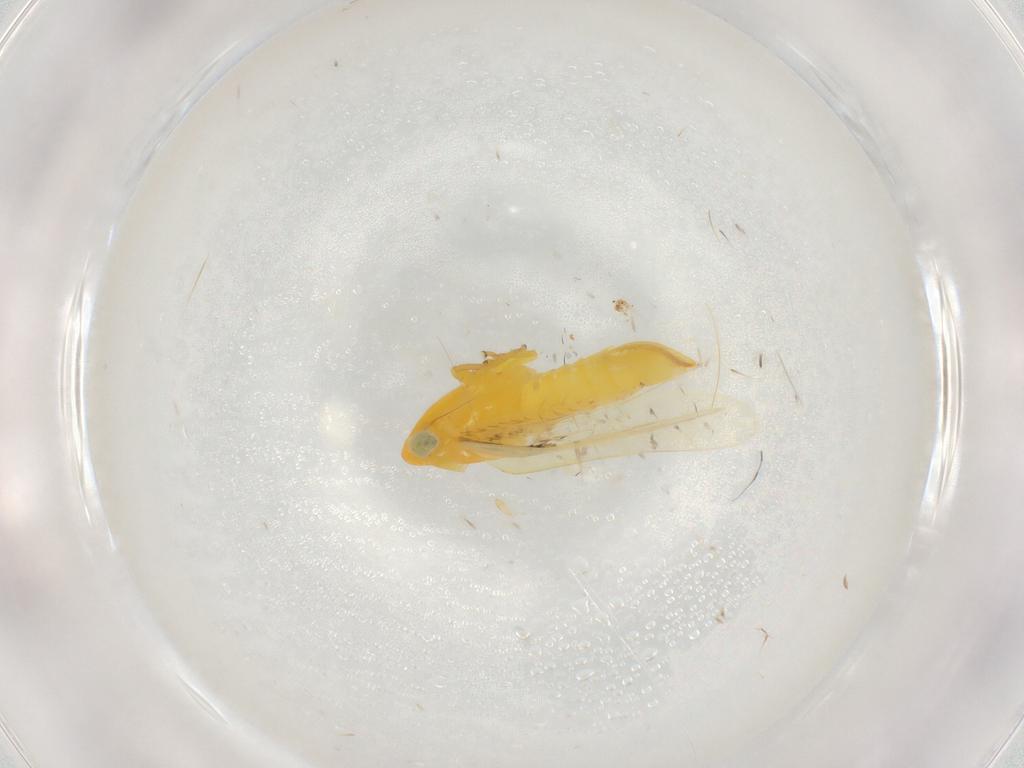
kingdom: Animalia
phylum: Arthropoda
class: Insecta
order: Hemiptera
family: Cicadellidae
